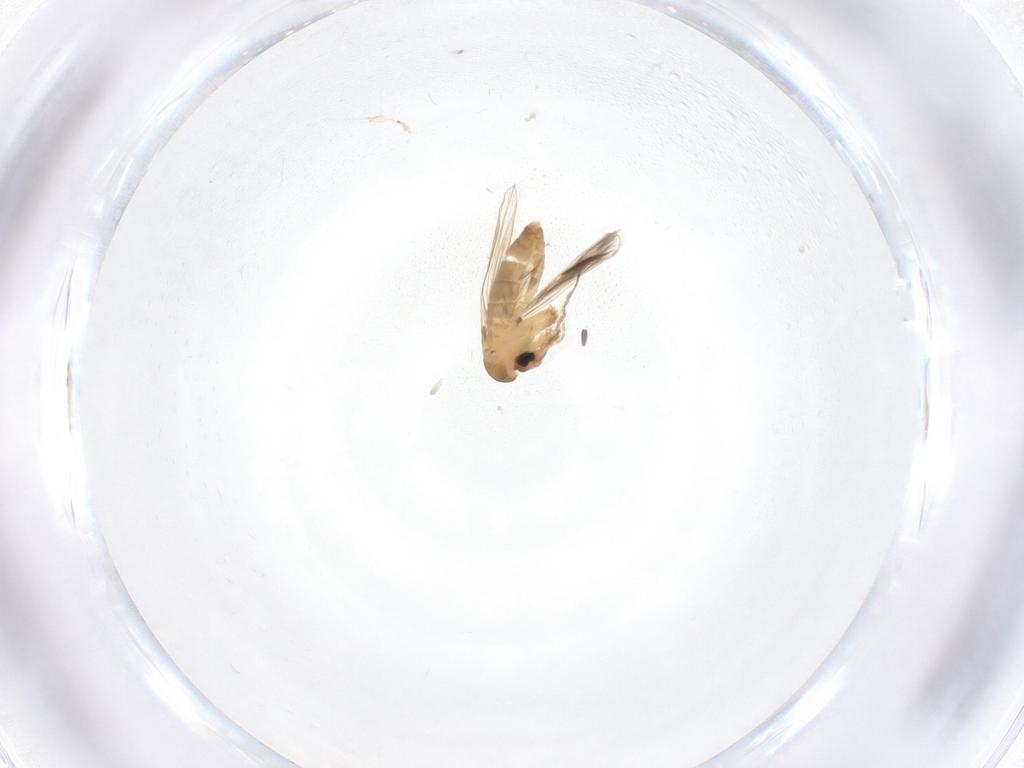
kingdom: Animalia
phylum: Arthropoda
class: Insecta
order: Diptera
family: Psychodidae
